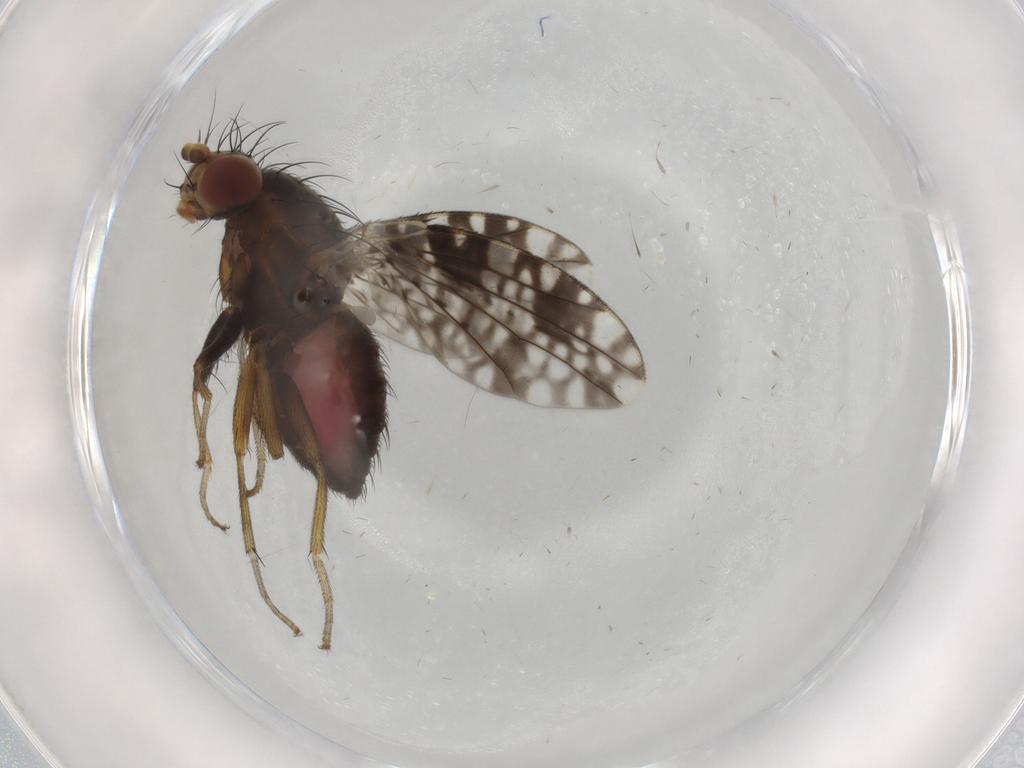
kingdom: Animalia
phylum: Arthropoda
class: Insecta
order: Diptera
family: Tephritidae
